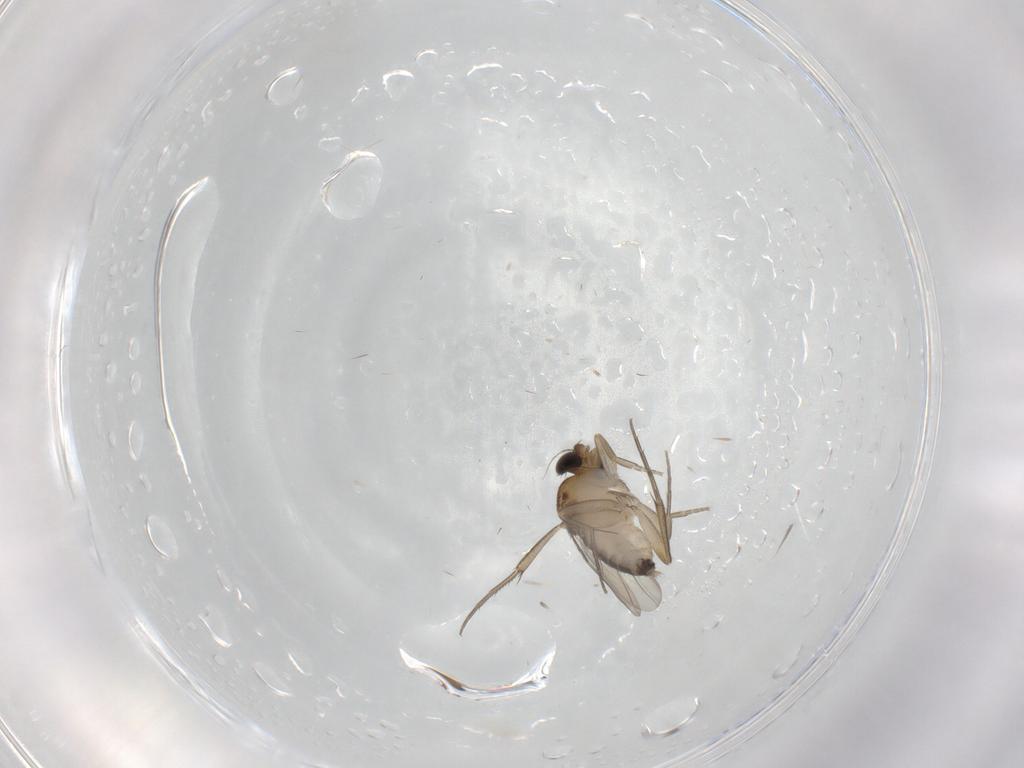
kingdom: Animalia
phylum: Arthropoda
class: Insecta
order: Diptera
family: Phoridae
